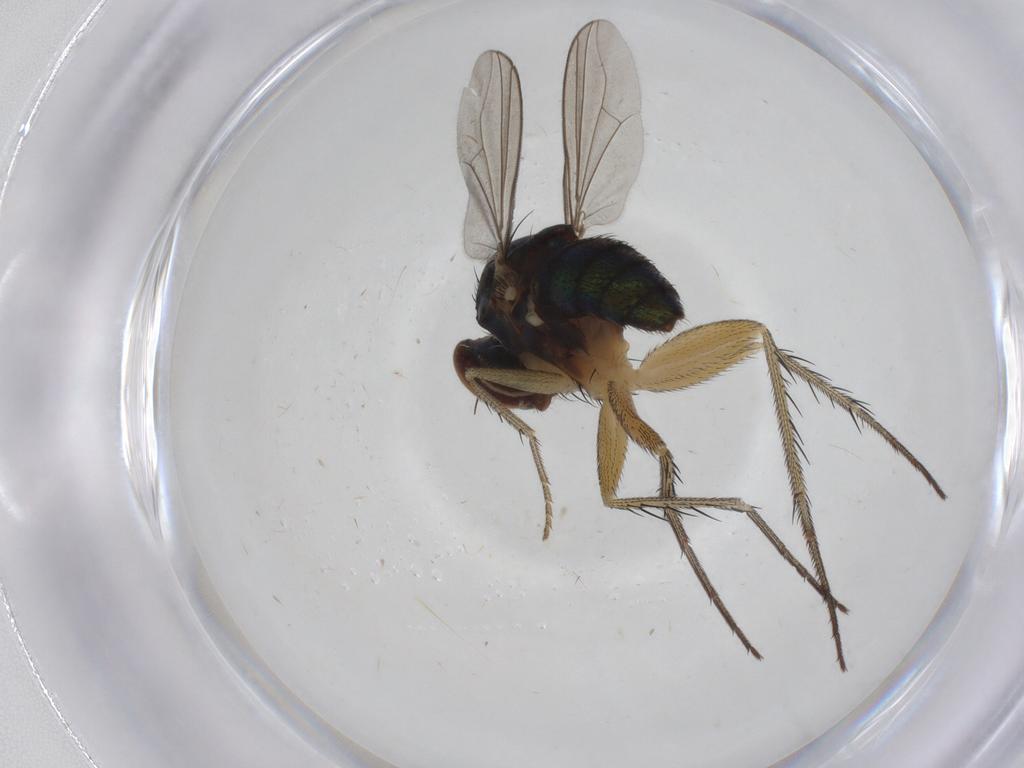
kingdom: Animalia
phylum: Arthropoda
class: Insecta
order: Diptera
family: Dolichopodidae
